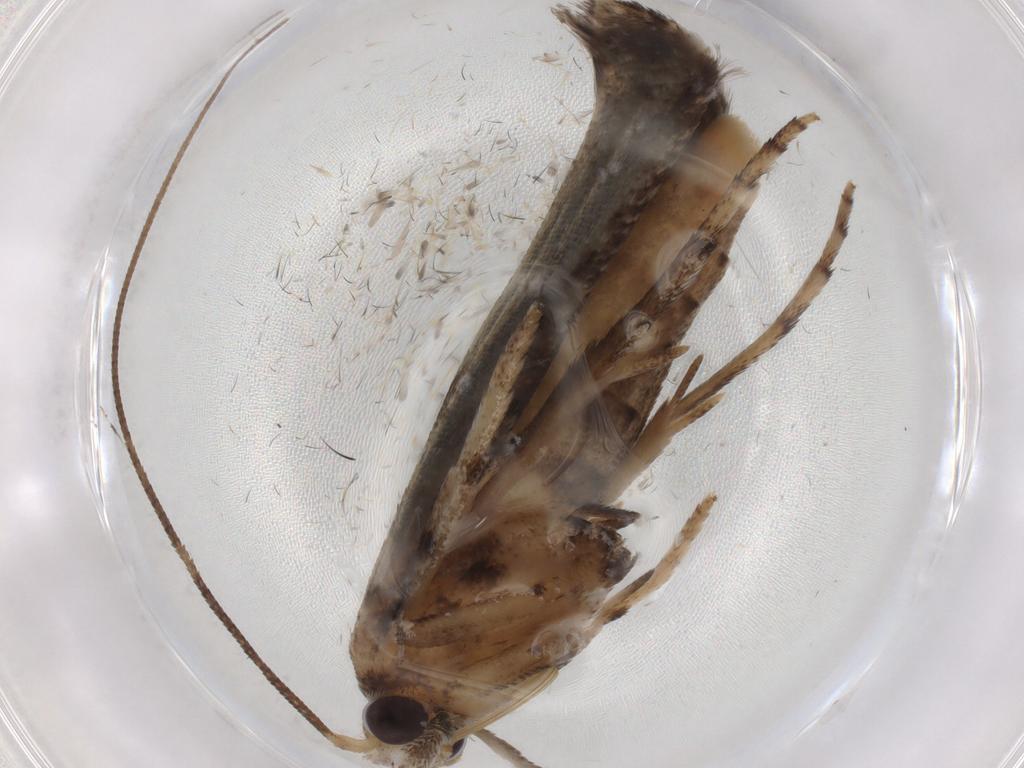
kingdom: Animalia
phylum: Arthropoda
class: Insecta
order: Lepidoptera
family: Yponomeutidae
